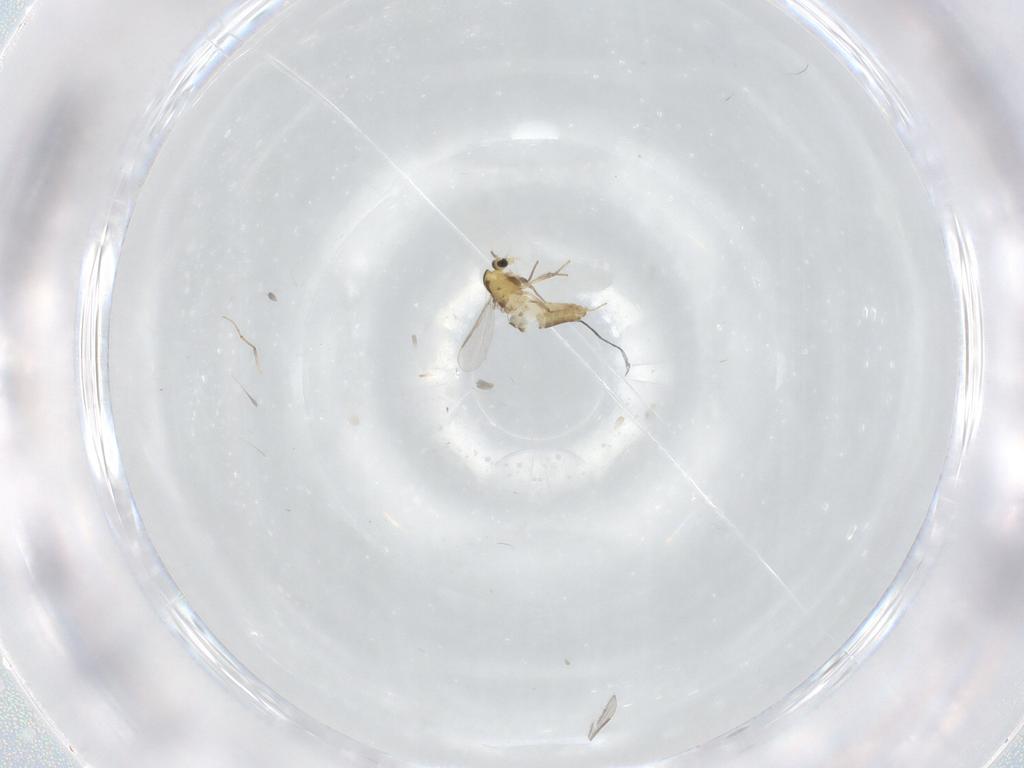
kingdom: Animalia
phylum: Arthropoda
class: Insecta
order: Diptera
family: Chironomidae
